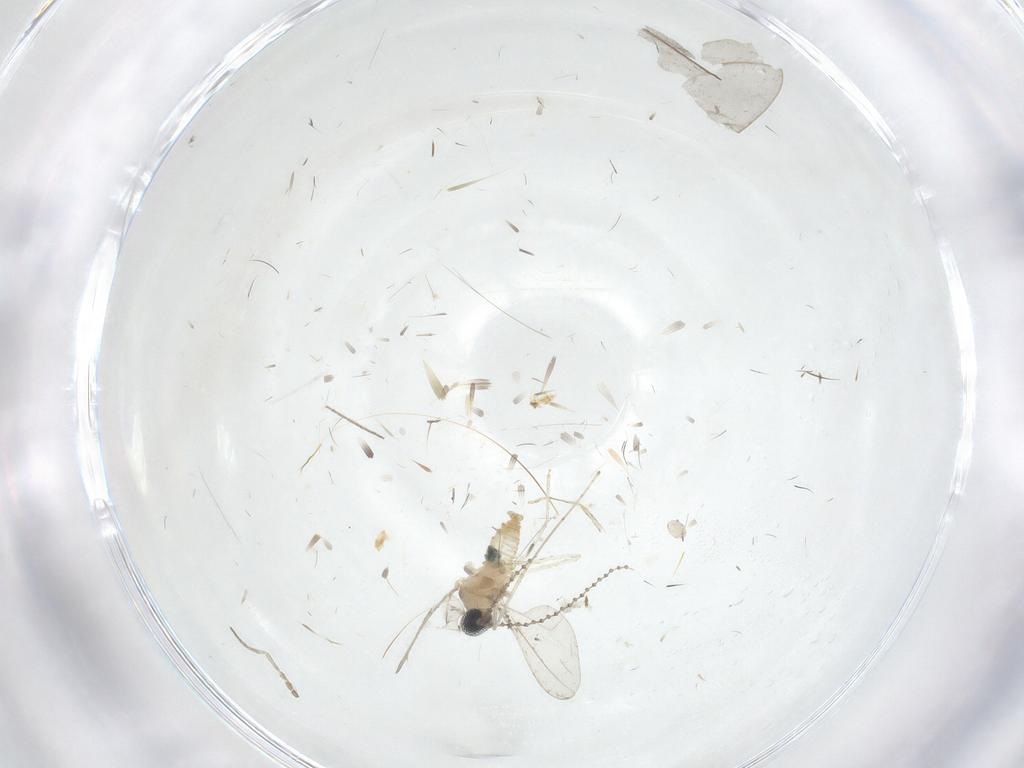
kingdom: Animalia
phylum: Arthropoda
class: Insecta
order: Diptera
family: Cecidomyiidae
